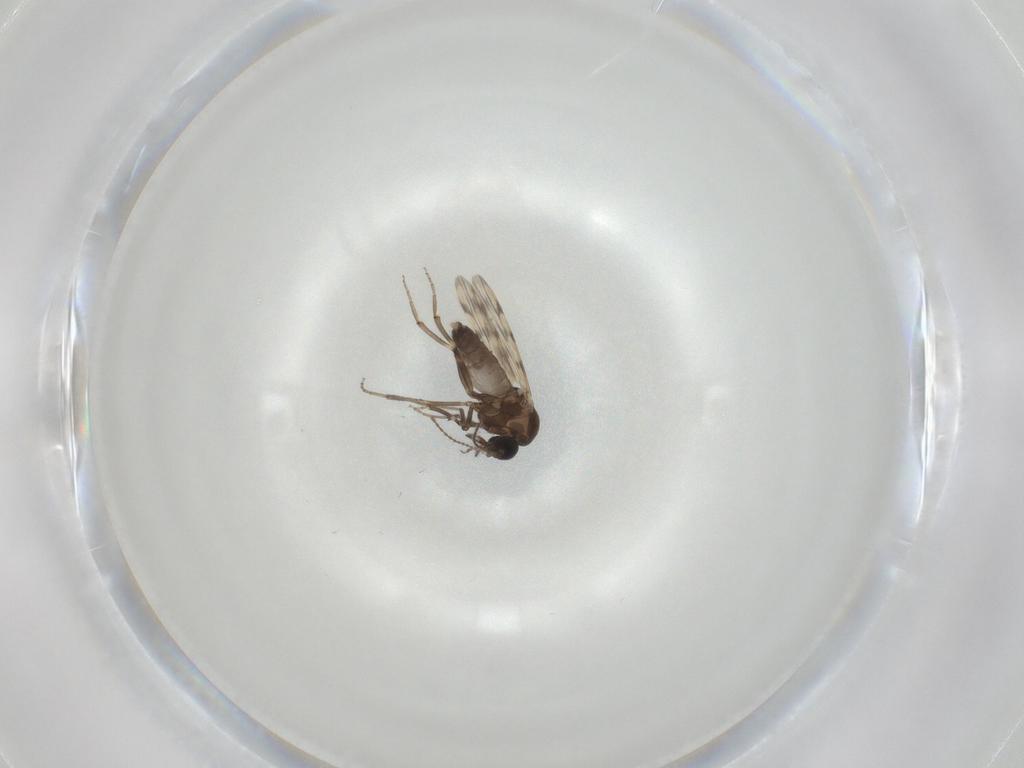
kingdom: Animalia
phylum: Arthropoda
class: Insecta
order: Diptera
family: Ceratopogonidae
